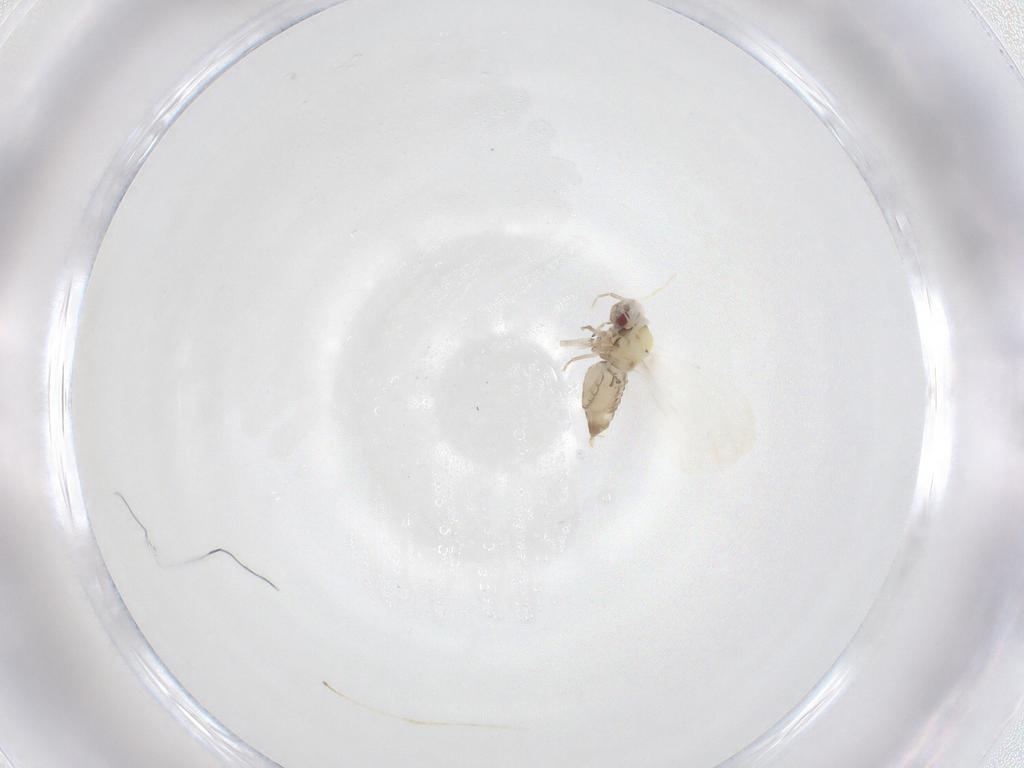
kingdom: Animalia
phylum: Arthropoda
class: Insecta
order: Hemiptera
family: Aleyrodidae
